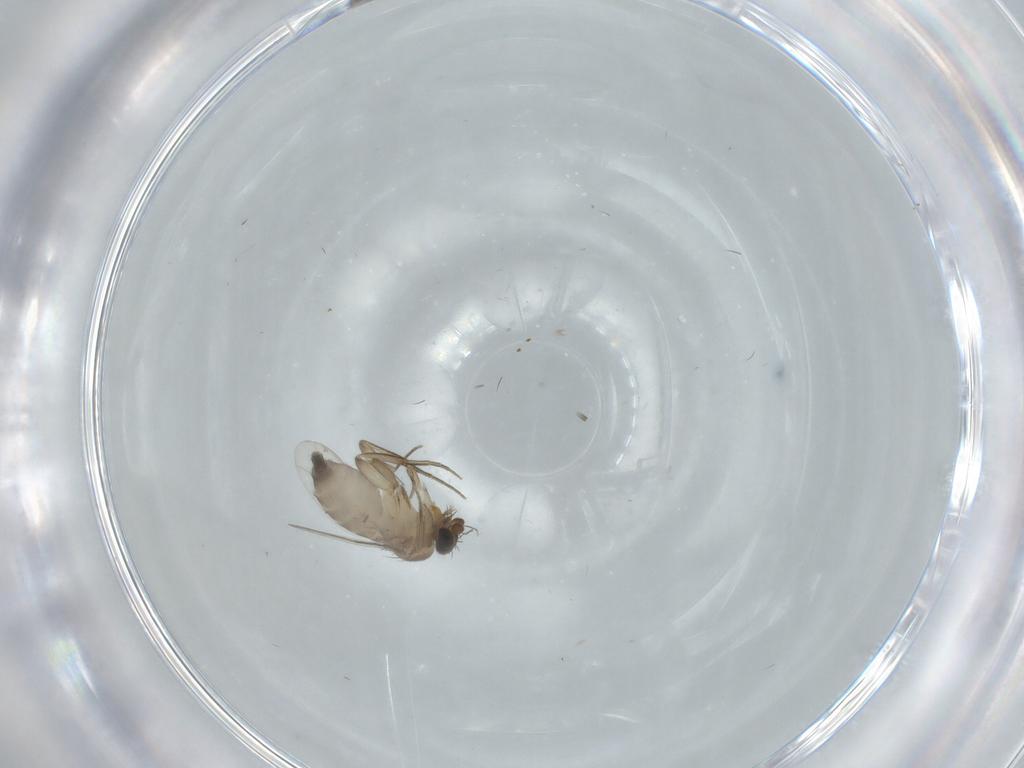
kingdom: Animalia
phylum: Arthropoda
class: Insecta
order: Diptera
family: Phoridae
